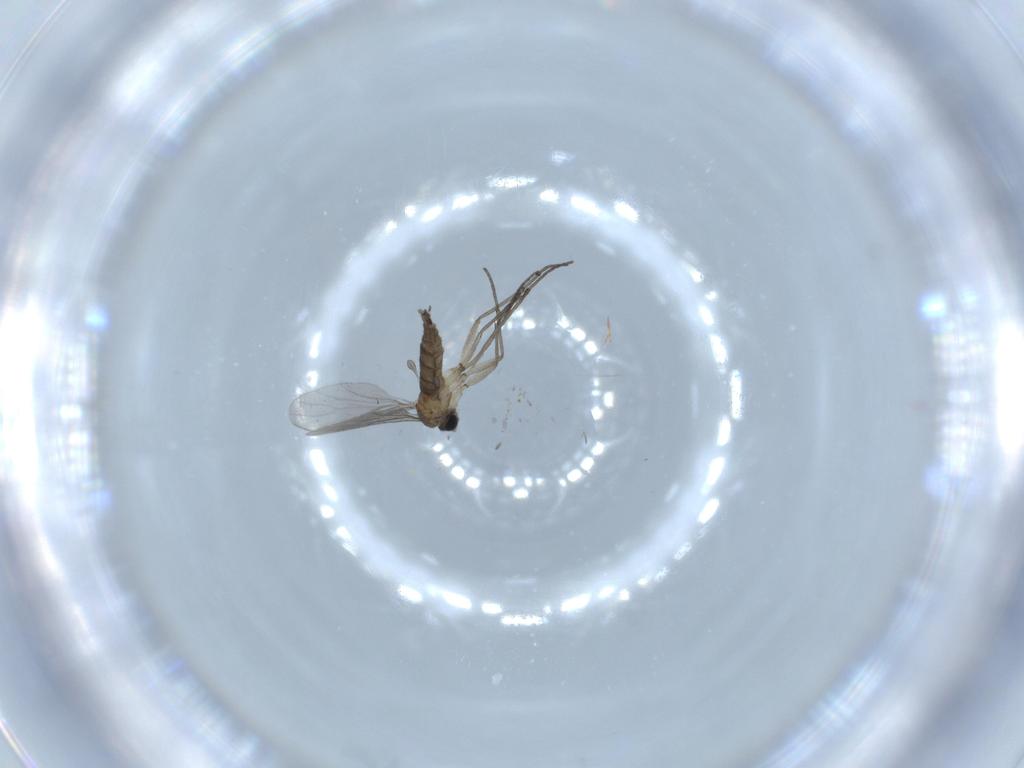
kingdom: Animalia
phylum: Arthropoda
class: Insecta
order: Diptera
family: Sciaridae
